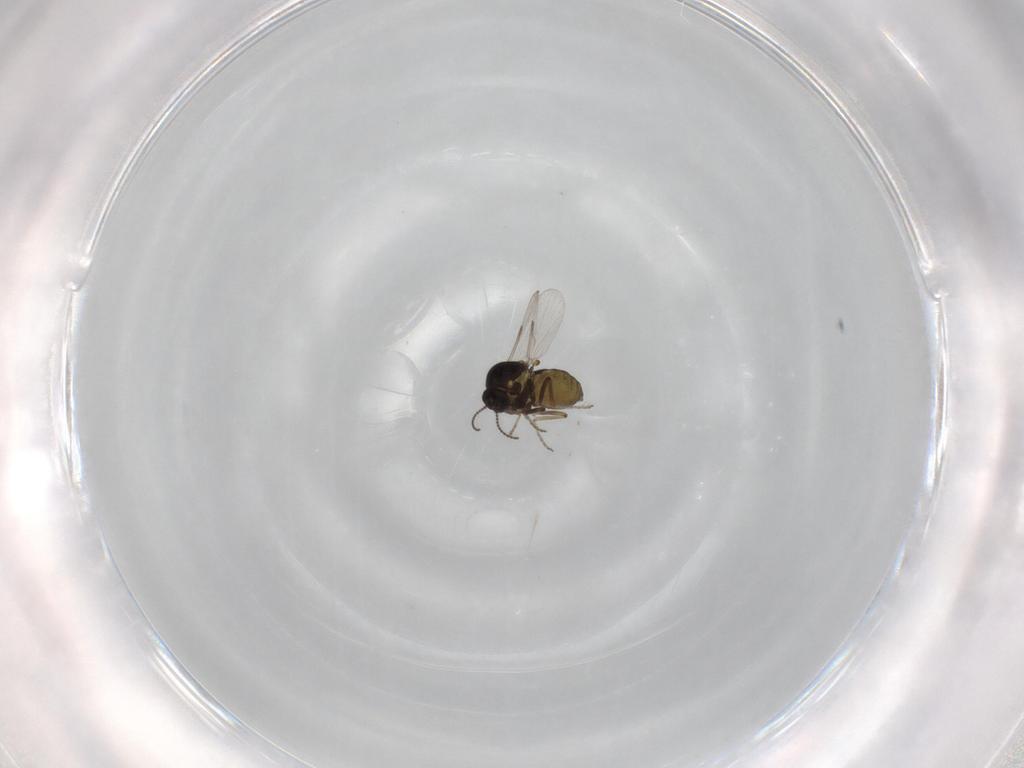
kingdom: Animalia
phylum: Arthropoda
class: Insecta
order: Diptera
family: Ceratopogonidae
